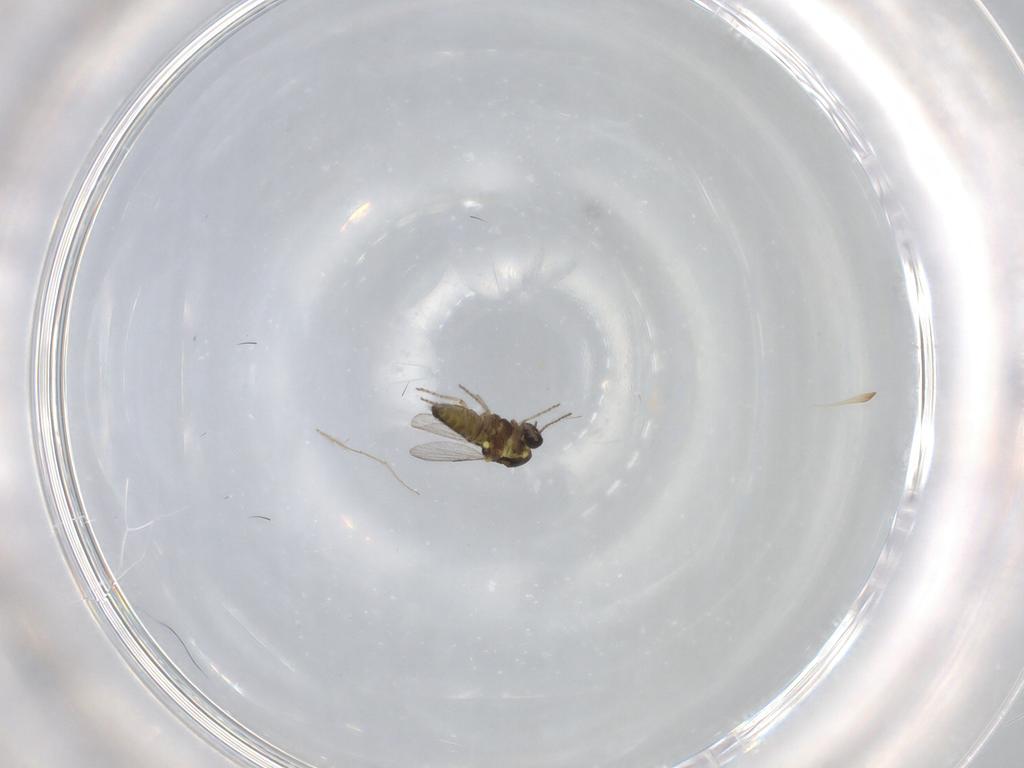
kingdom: Animalia
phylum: Arthropoda
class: Insecta
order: Diptera
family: Ceratopogonidae
